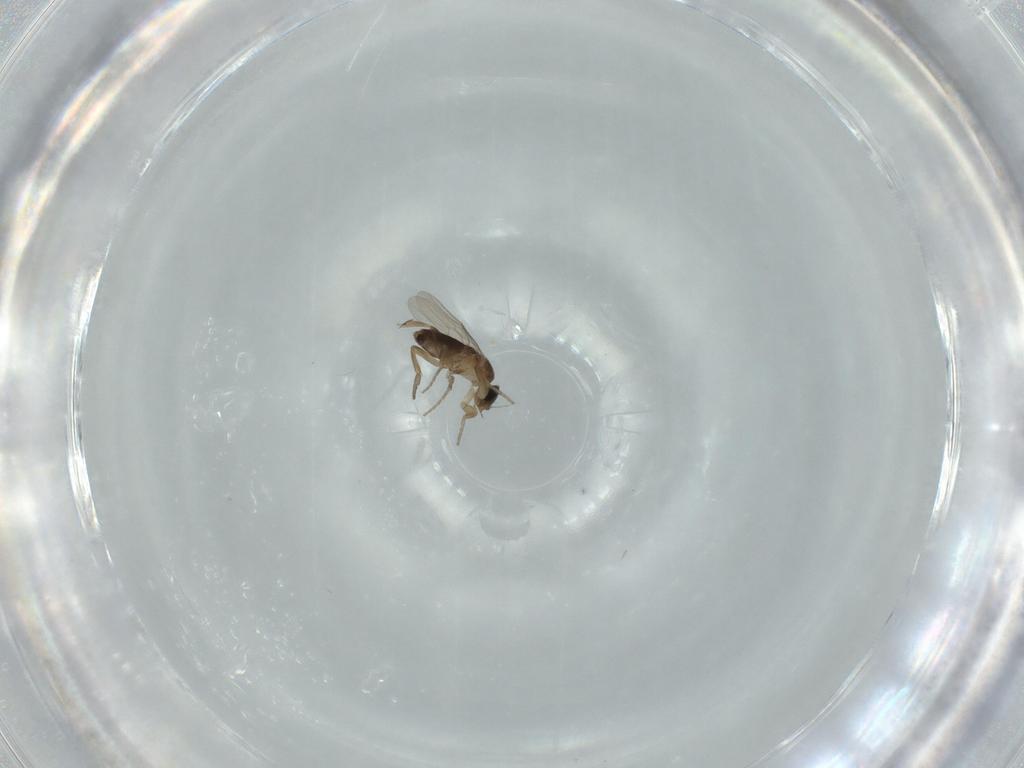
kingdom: Animalia
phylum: Arthropoda
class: Insecta
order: Diptera
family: Phoridae
